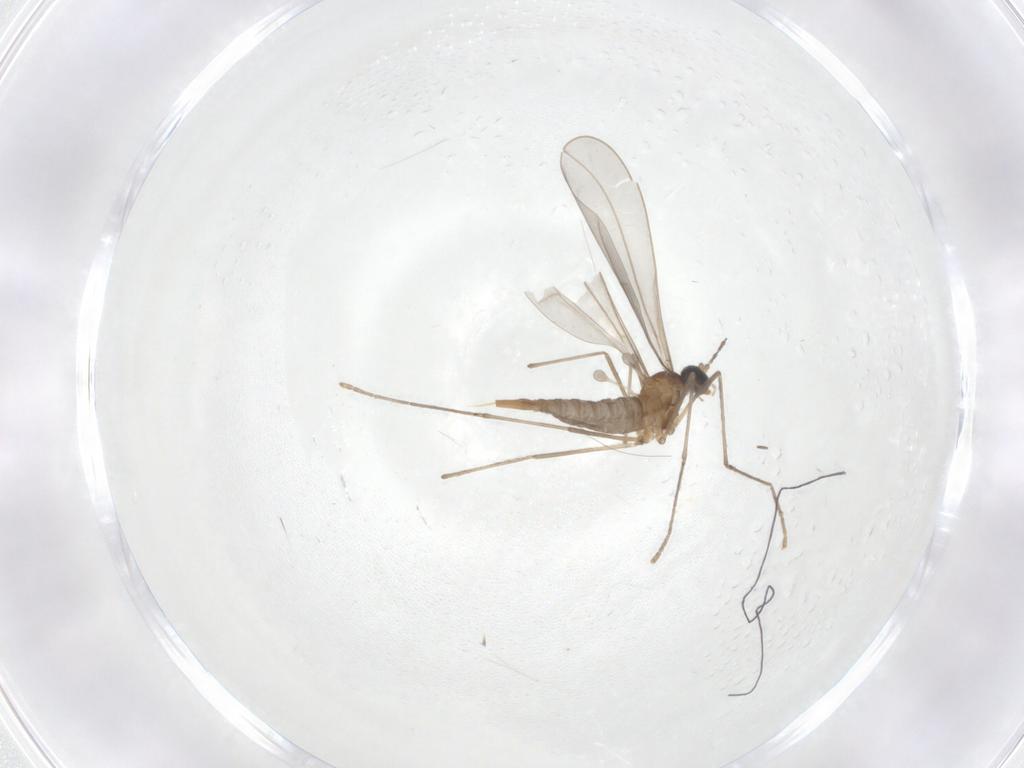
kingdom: Animalia
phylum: Arthropoda
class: Insecta
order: Diptera
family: Cecidomyiidae
